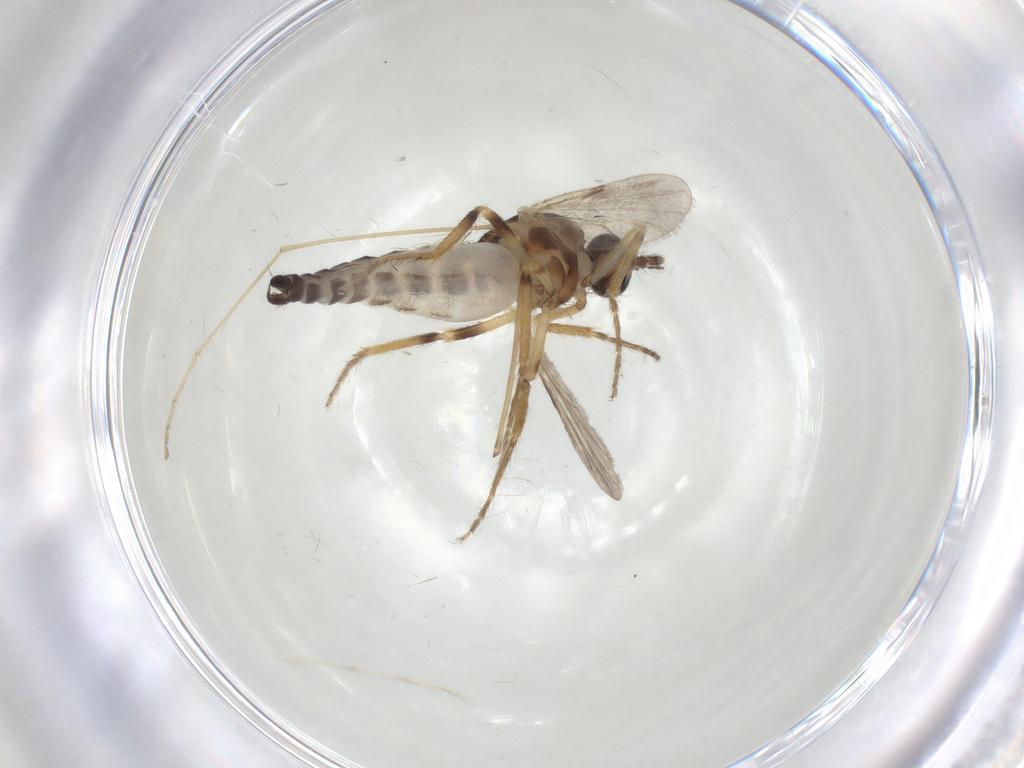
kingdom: Animalia
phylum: Arthropoda
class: Insecta
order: Diptera
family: Ceratopogonidae
